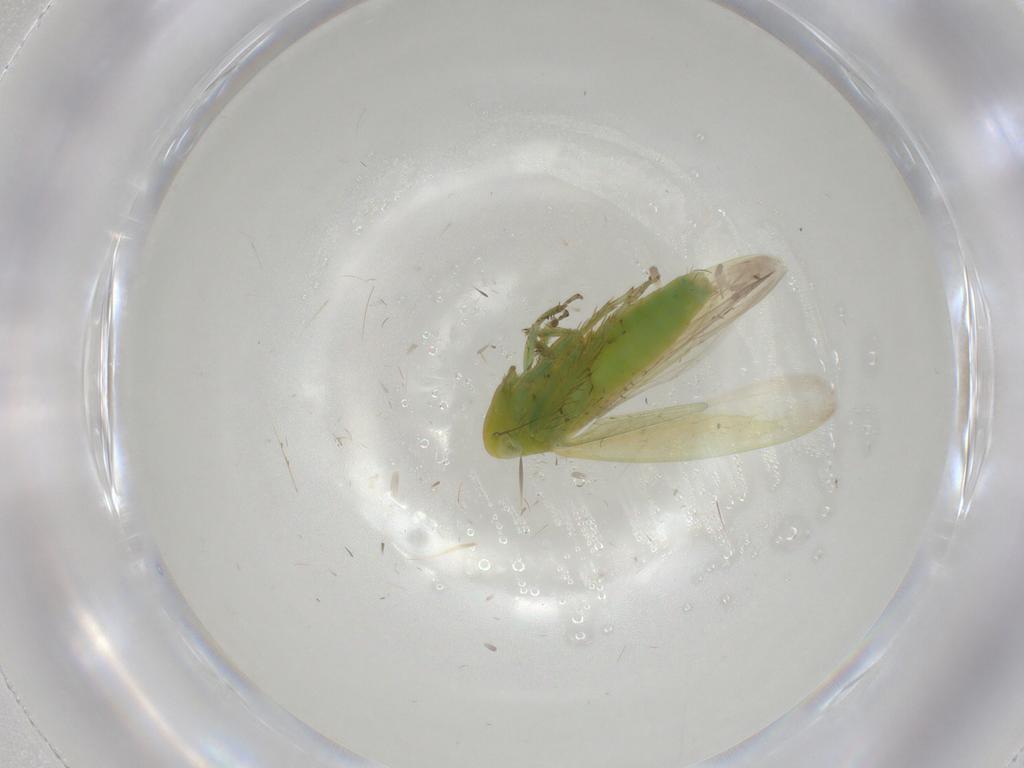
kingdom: Animalia
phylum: Arthropoda
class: Insecta
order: Hemiptera
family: Cicadellidae
